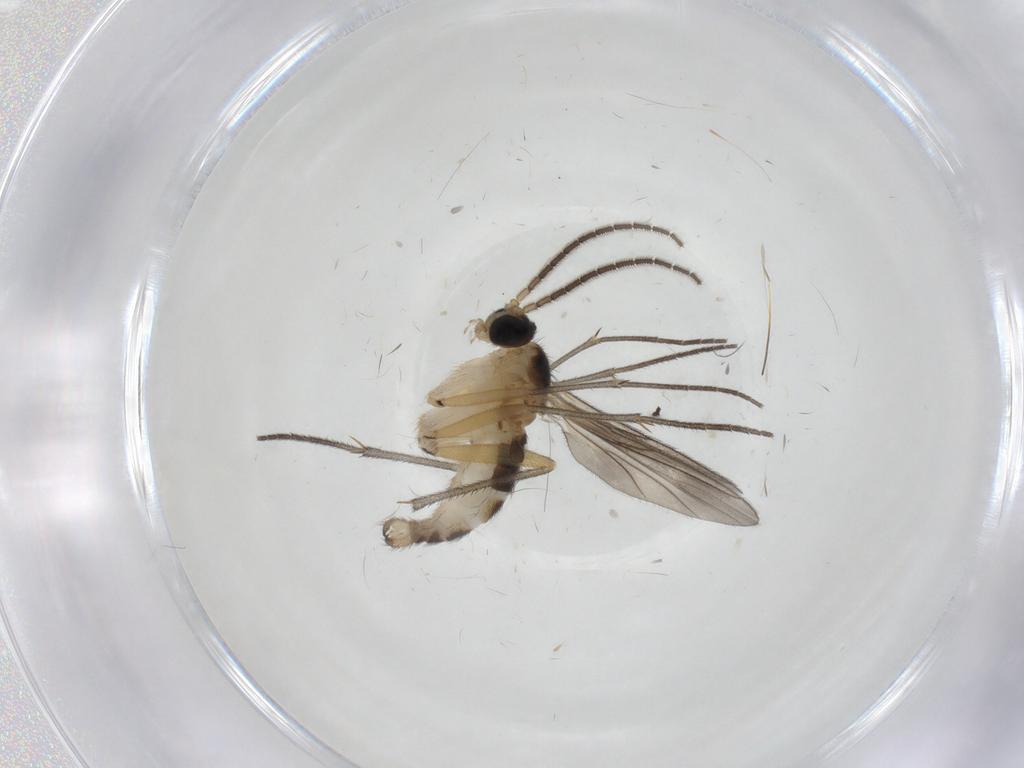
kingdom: Animalia
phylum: Arthropoda
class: Insecta
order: Diptera
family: Sciaridae
